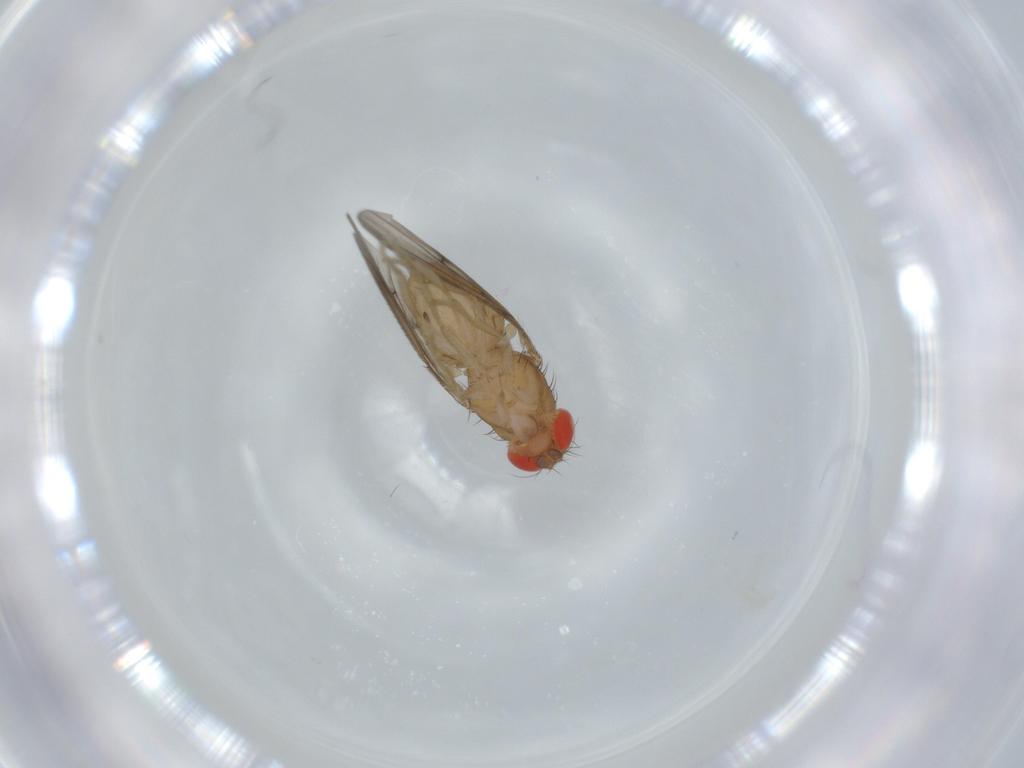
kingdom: Animalia
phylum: Arthropoda
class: Insecta
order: Diptera
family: Drosophilidae
